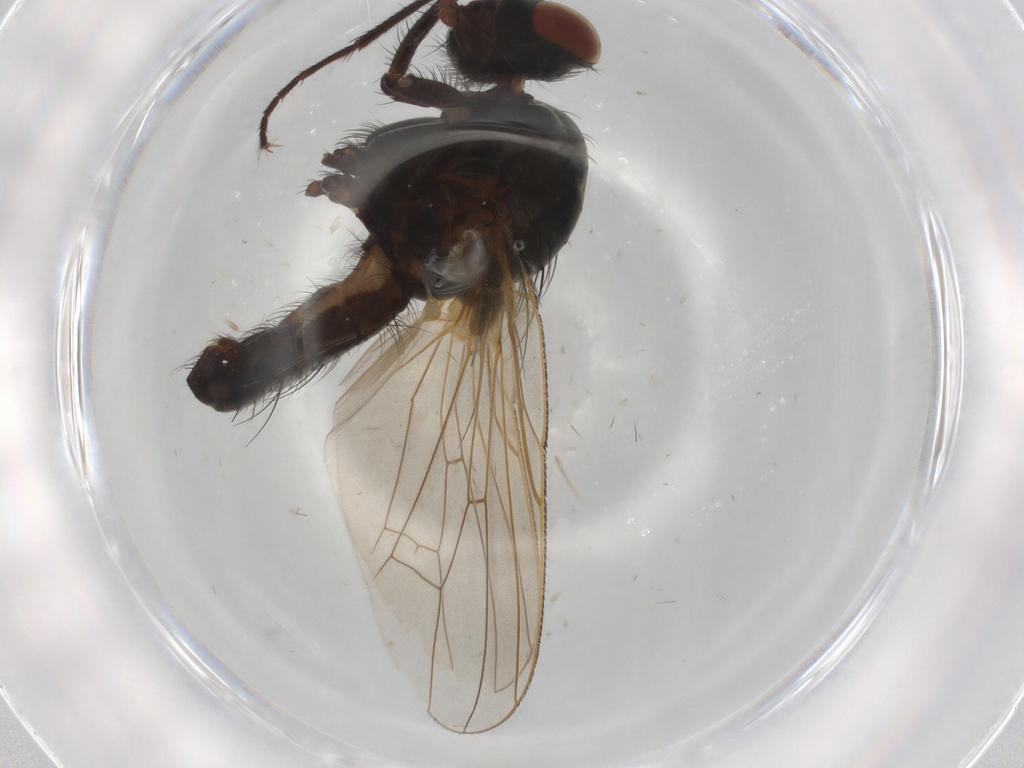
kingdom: Animalia
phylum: Arthropoda
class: Insecta
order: Diptera
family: Anthomyiidae
